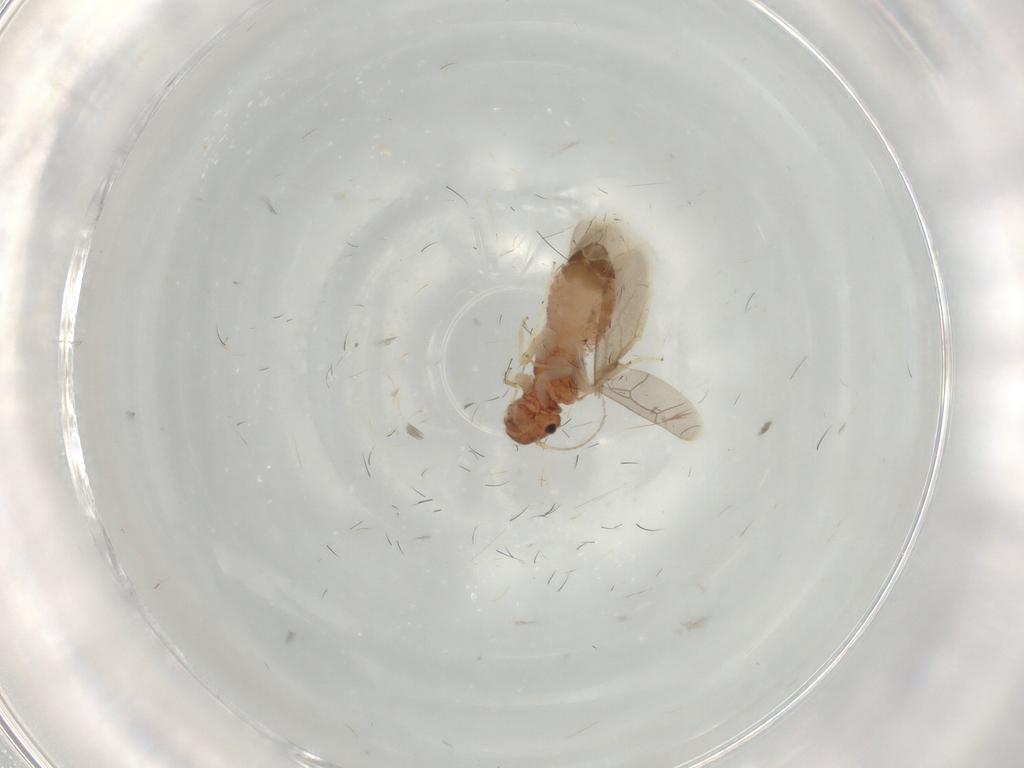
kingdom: Animalia
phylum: Arthropoda
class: Insecta
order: Psocodea
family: Archipsocidae
